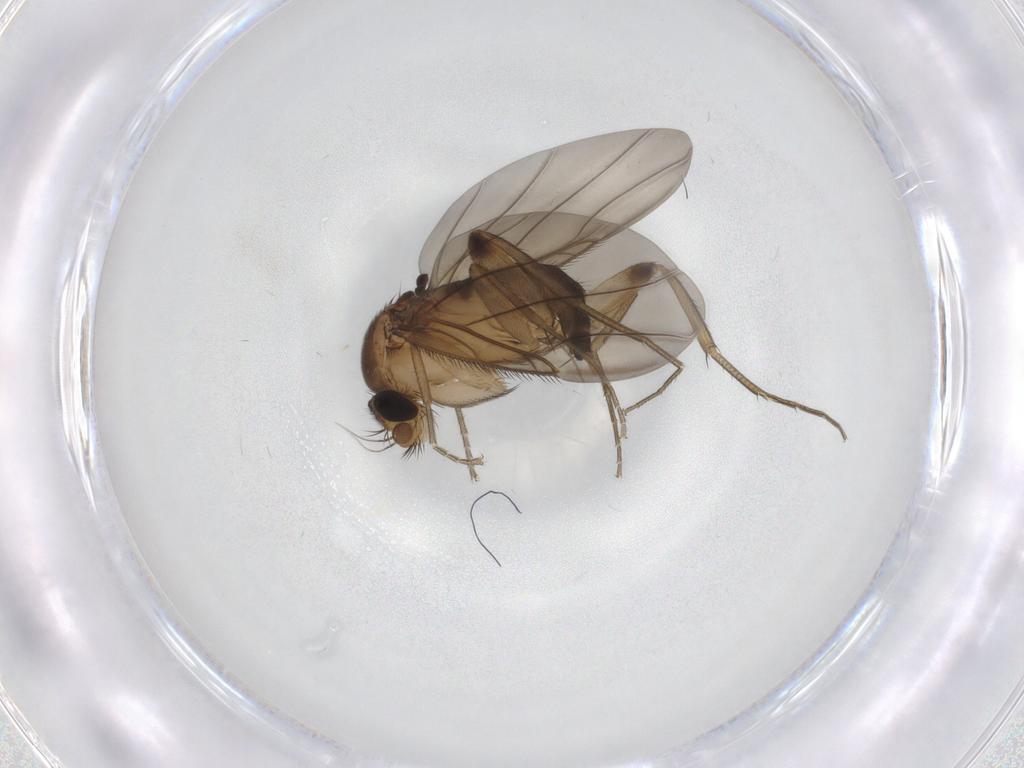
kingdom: Animalia
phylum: Arthropoda
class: Insecta
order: Diptera
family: Phoridae
